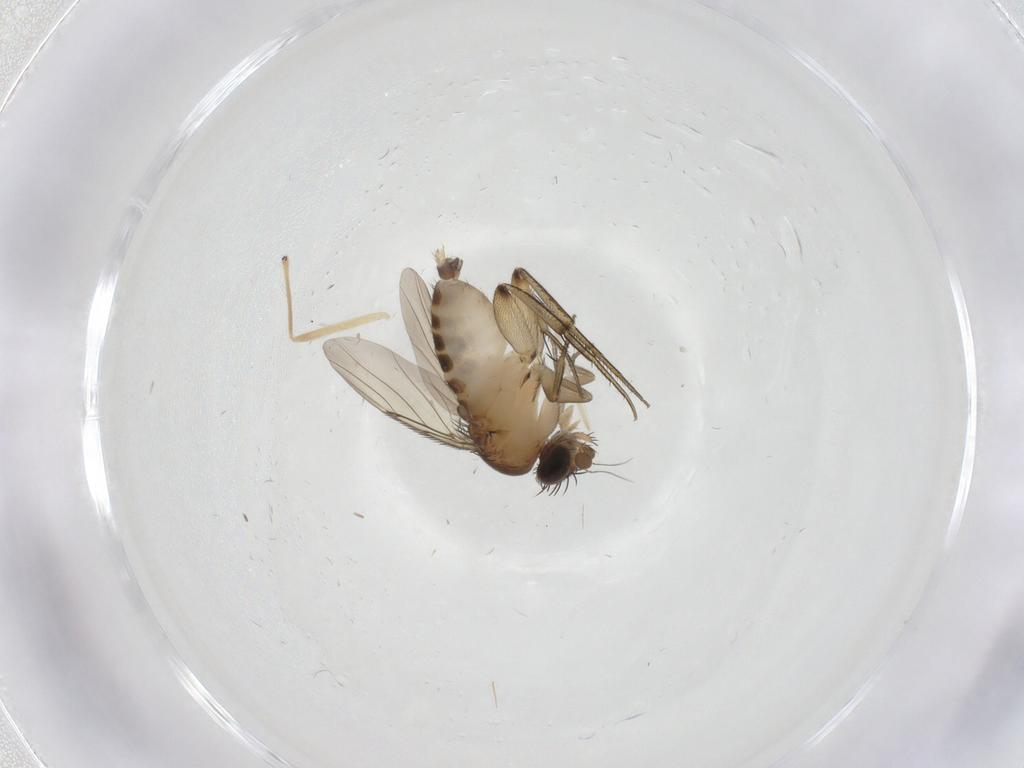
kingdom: Animalia
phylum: Arthropoda
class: Insecta
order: Diptera
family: Phoridae
